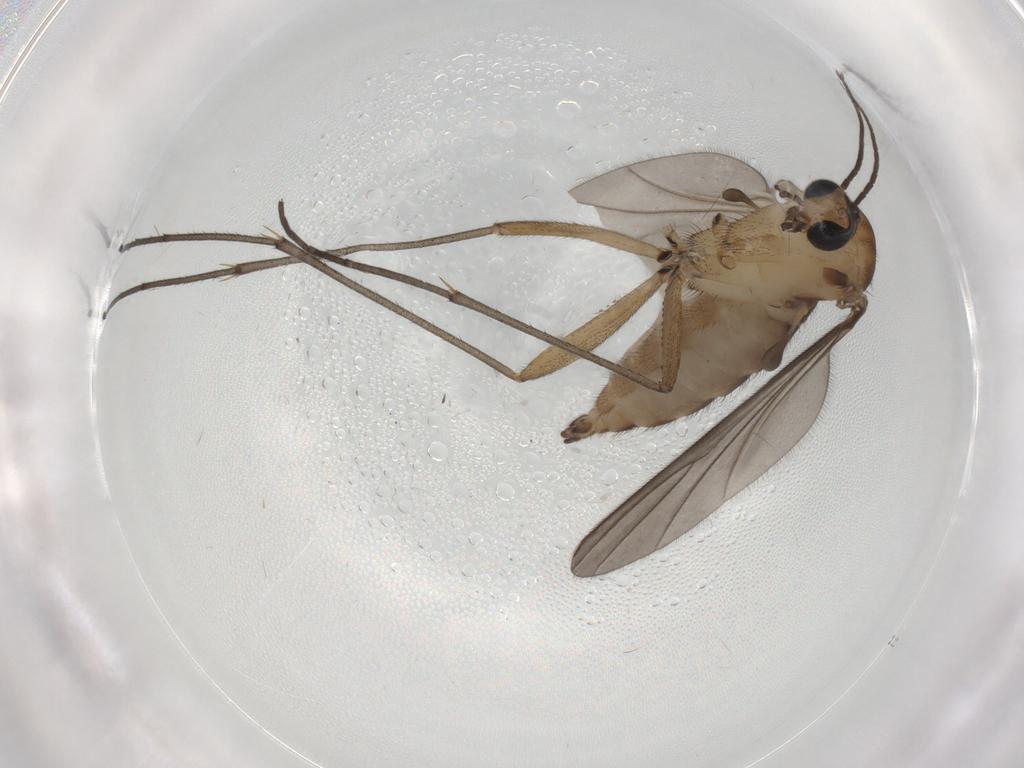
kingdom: Animalia
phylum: Arthropoda
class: Insecta
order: Diptera
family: Sciaridae
